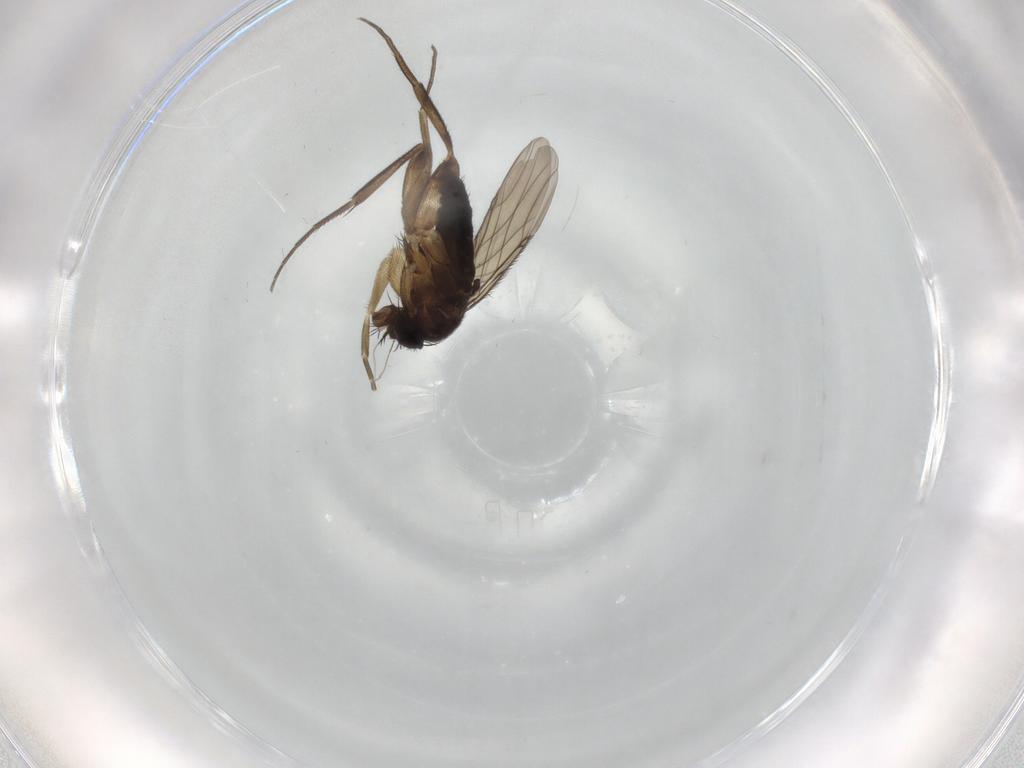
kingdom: Animalia
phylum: Arthropoda
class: Insecta
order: Diptera
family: Phoridae
